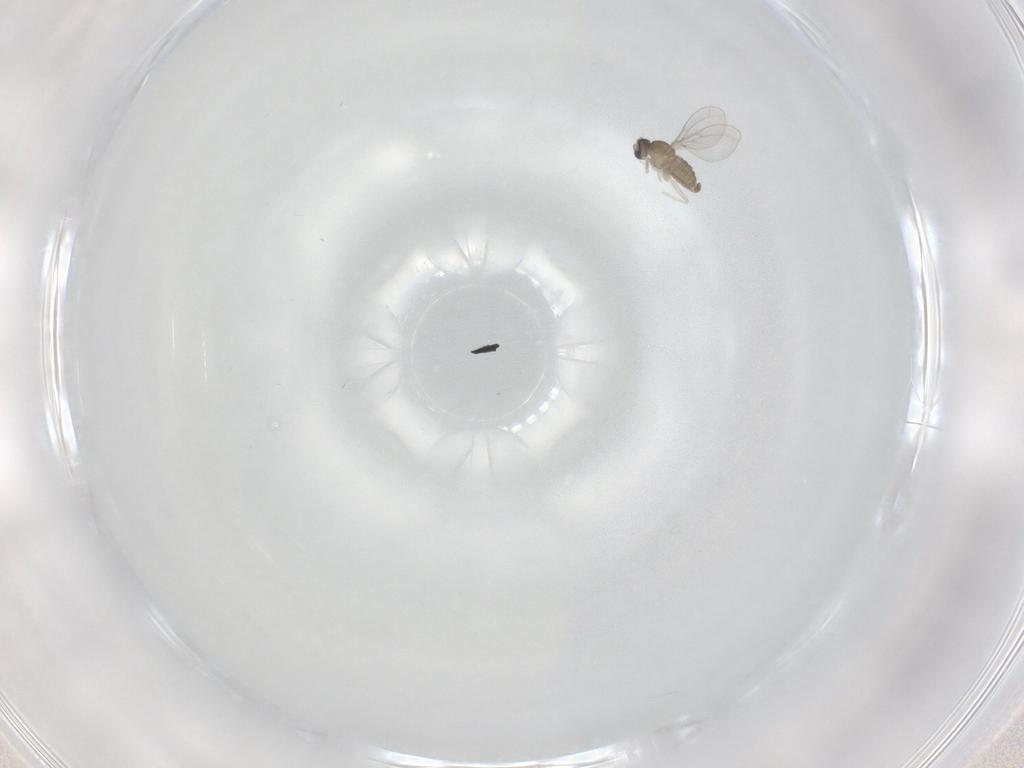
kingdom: Animalia
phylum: Arthropoda
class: Insecta
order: Diptera
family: Cecidomyiidae
